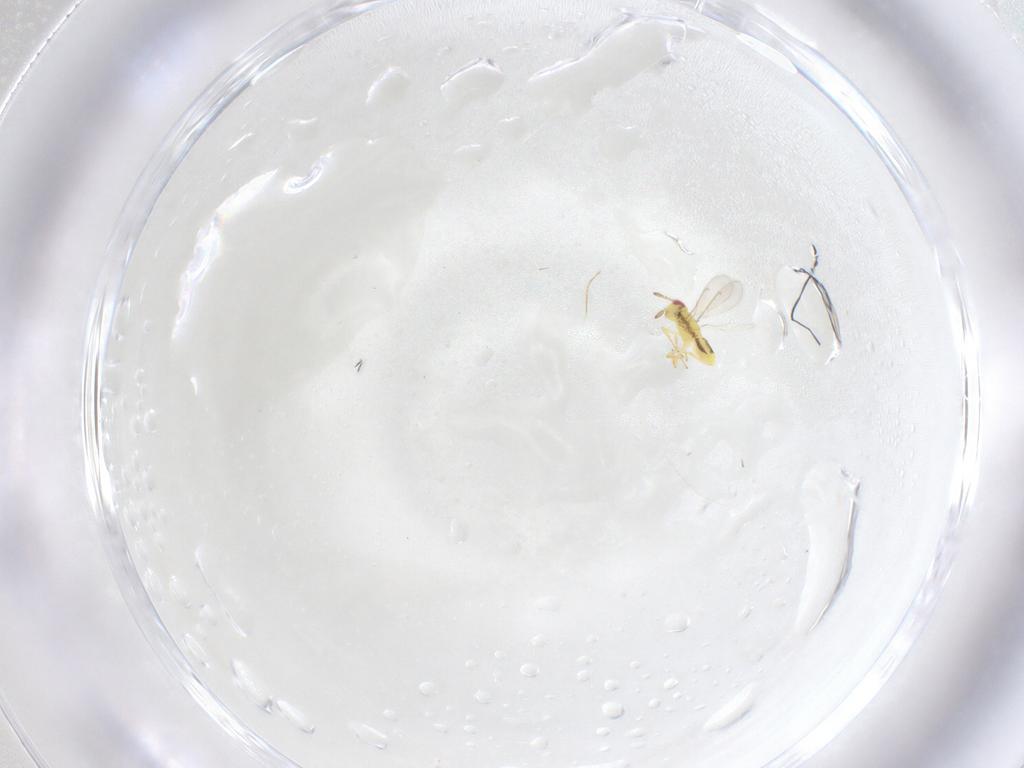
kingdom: Animalia
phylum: Arthropoda
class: Insecta
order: Hymenoptera
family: Aphelinidae
